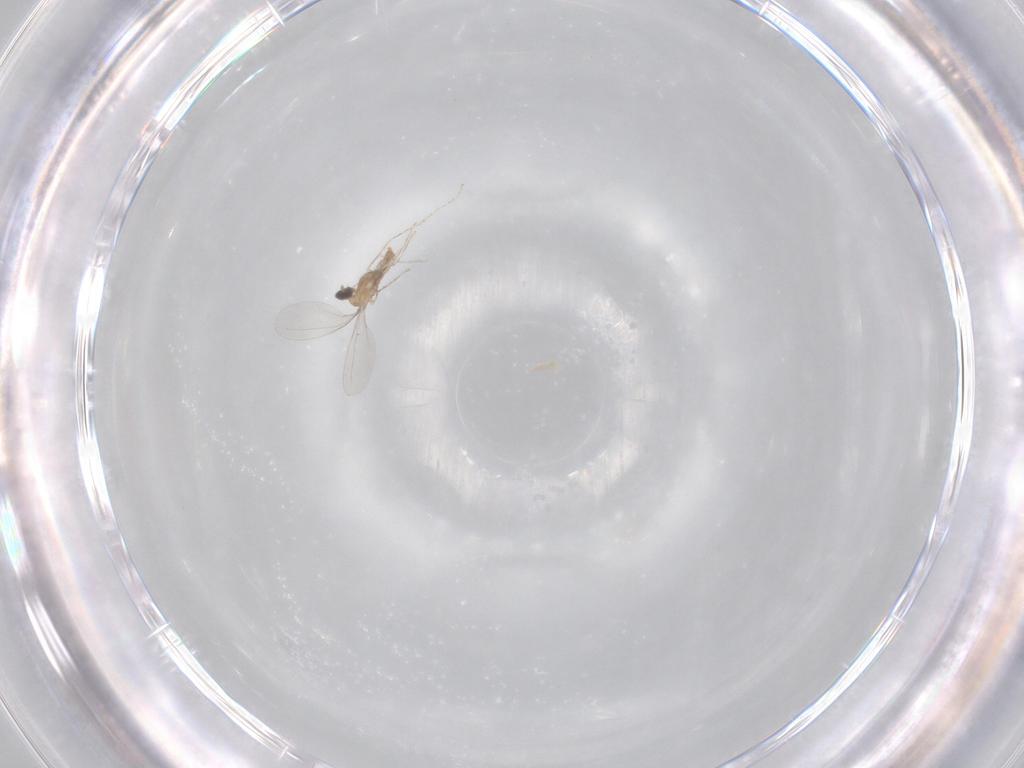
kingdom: Animalia
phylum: Arthropoda
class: Insecta
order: Diptera
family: Cecidomyiidae
